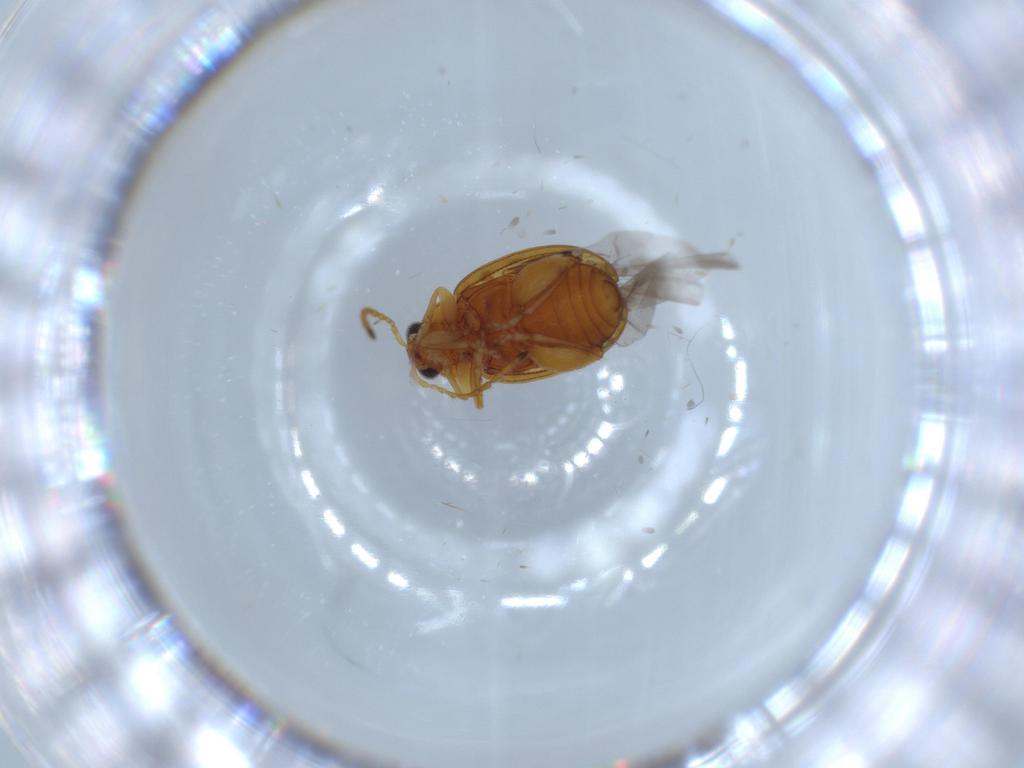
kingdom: Animalia
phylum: Arthropoda
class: Insecta
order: Coleoptera
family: Chrysomelidae
